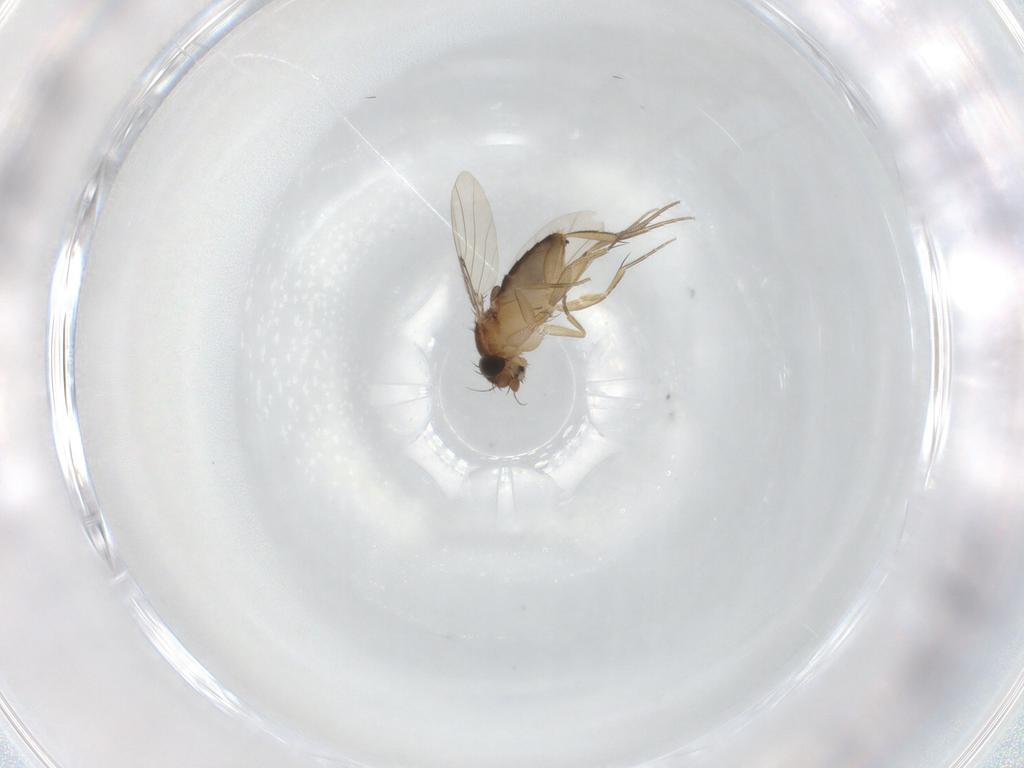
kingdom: Animalia
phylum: Arthropoda
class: Insecta
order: Diptera
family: Phoridae
